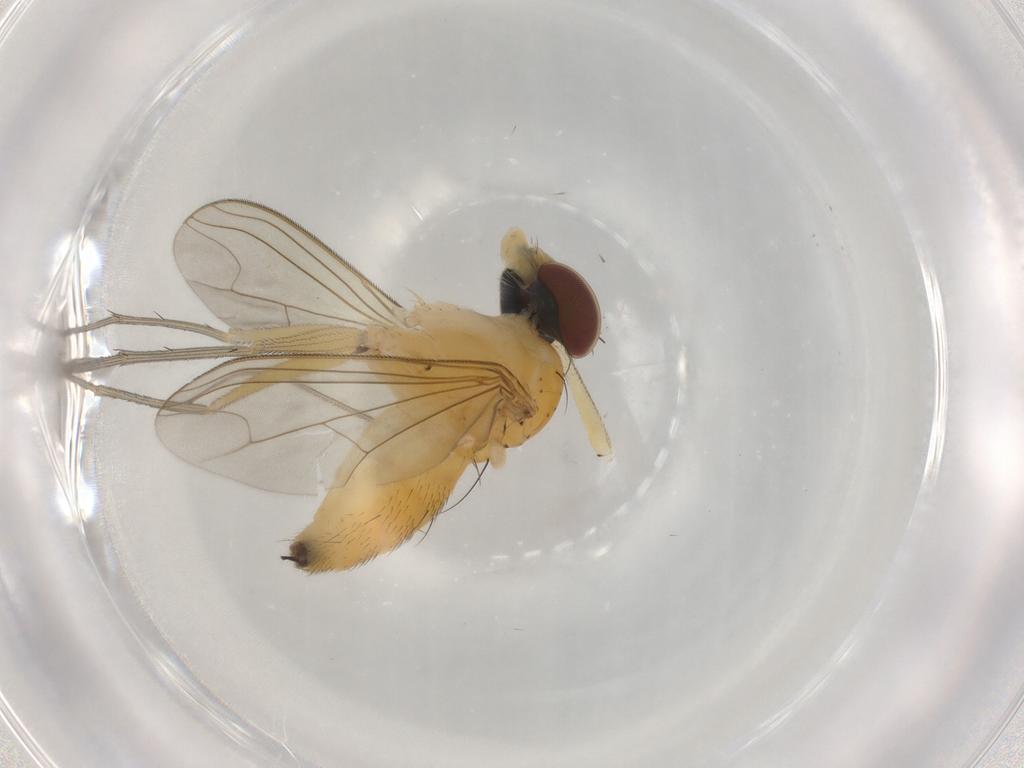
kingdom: Animalia
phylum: Arthropoda
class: Insecta
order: Diptera
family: Dolichopodidae
